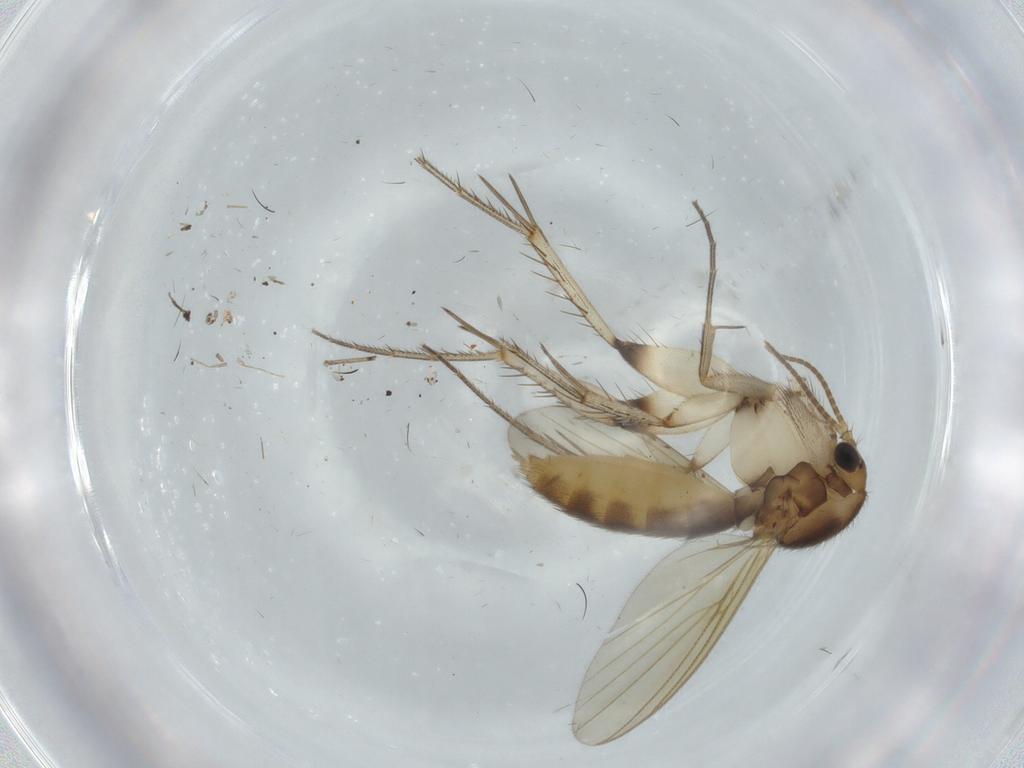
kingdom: Animalia
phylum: Arthropoda
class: Insecta
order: Diptera
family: Mycetophilidae
